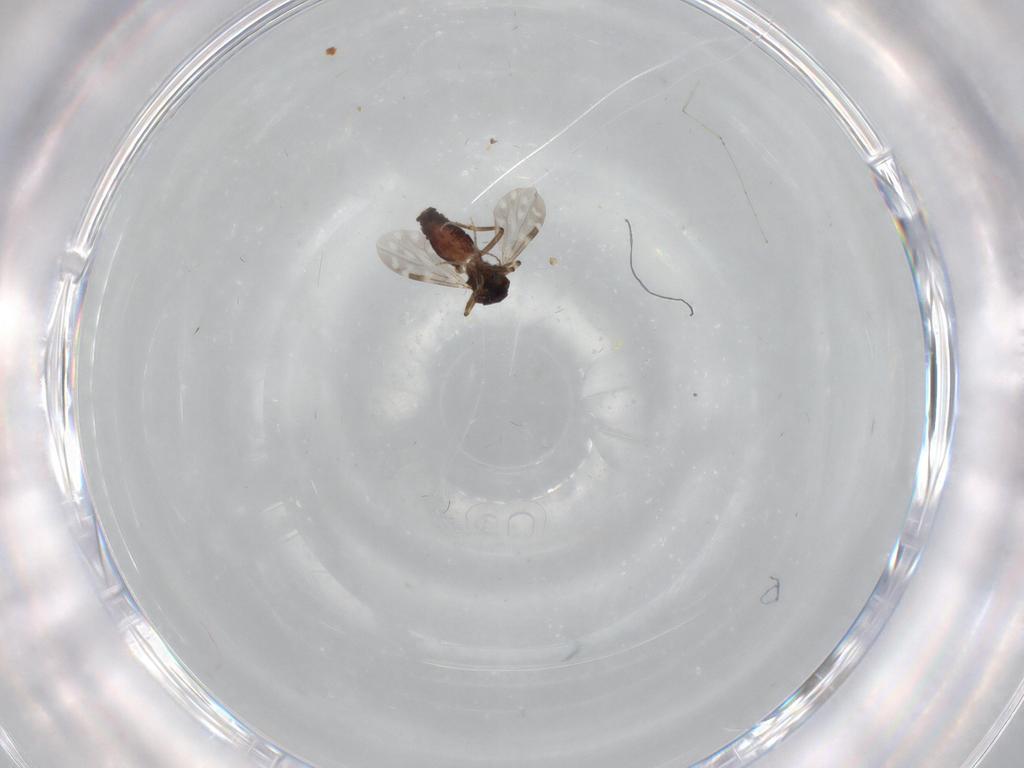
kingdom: Animalia
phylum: Arthropoda
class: Insecta
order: Diptera
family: Ceratopogonidae
